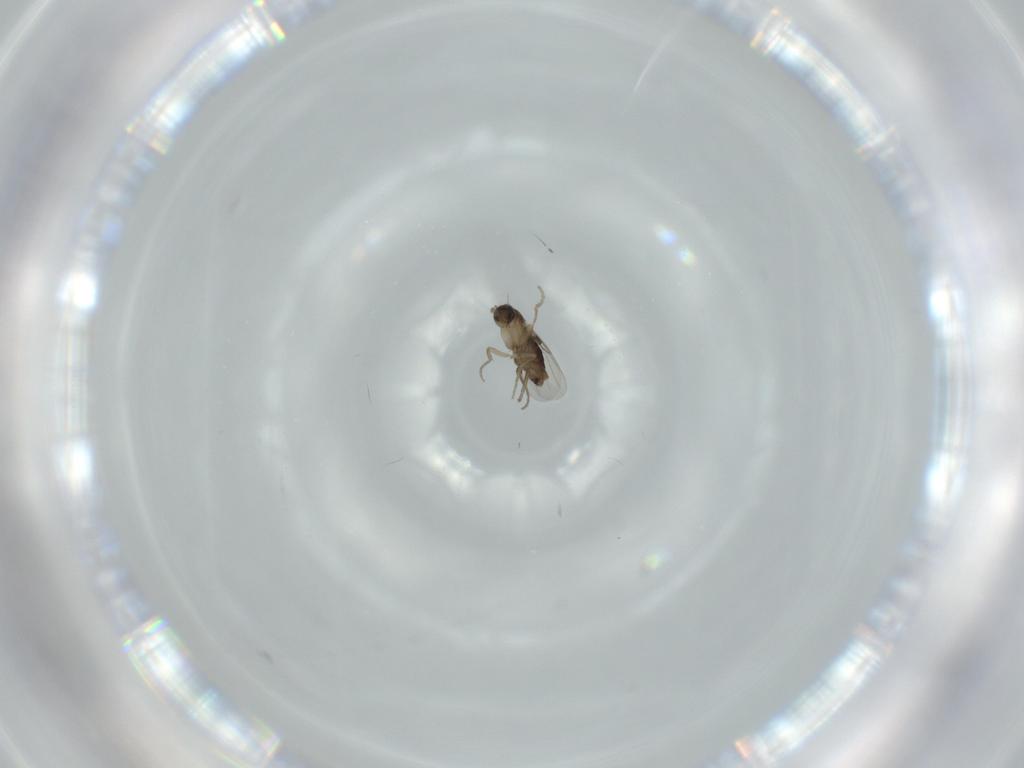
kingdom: Animalia
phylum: Arthropoda
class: Insecta
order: Diptera
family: Phoridae
